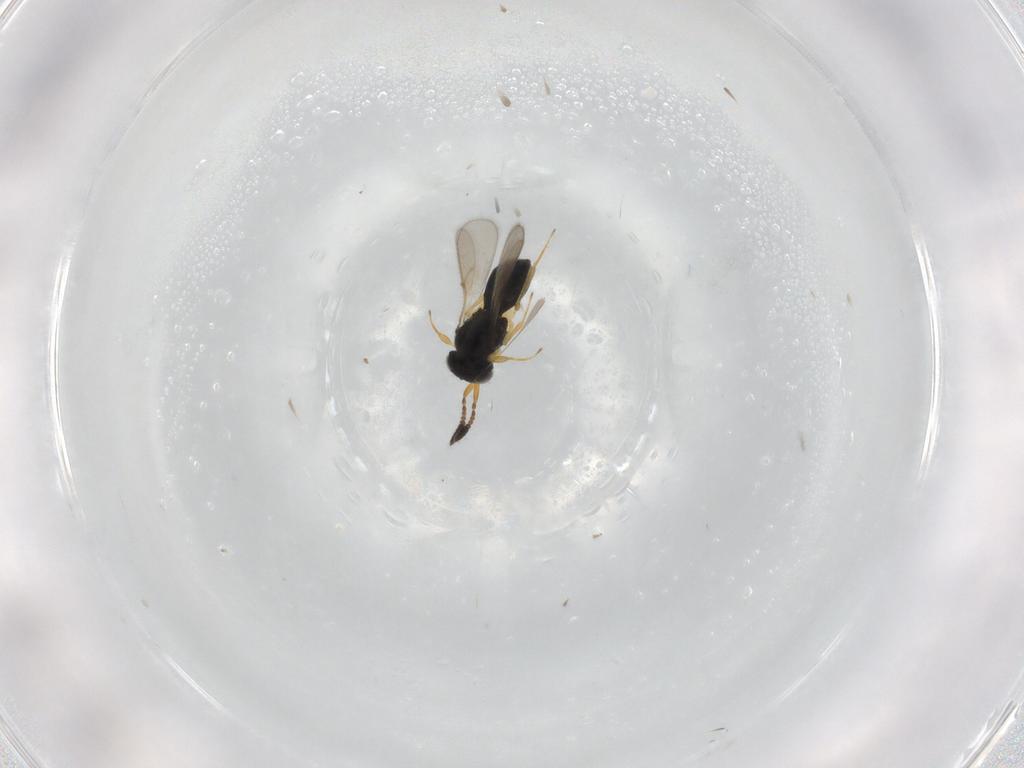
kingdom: Animalia
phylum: Arthropoda
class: Insecta
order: Hymenoptera
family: Scelionidae
